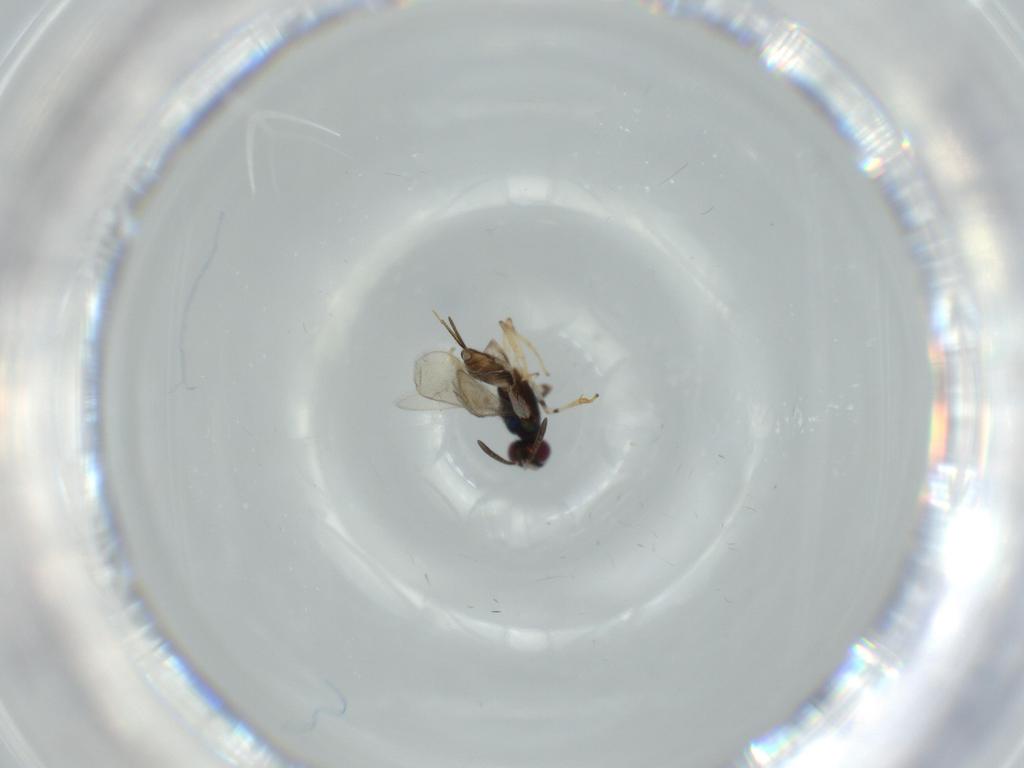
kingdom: Animalia
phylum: Arthropoda
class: Insecta
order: Hymenoptera
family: Eupelmidae
